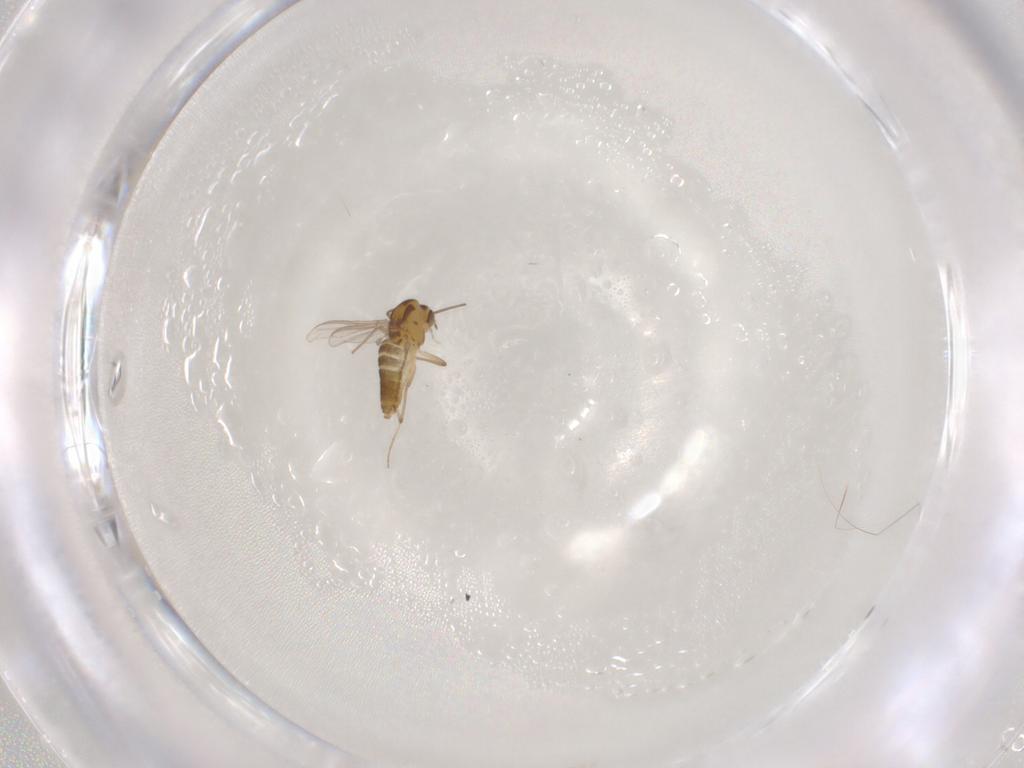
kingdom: Animalia
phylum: Arthropoda
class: Insecta
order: Diptera
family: Chironomidae
